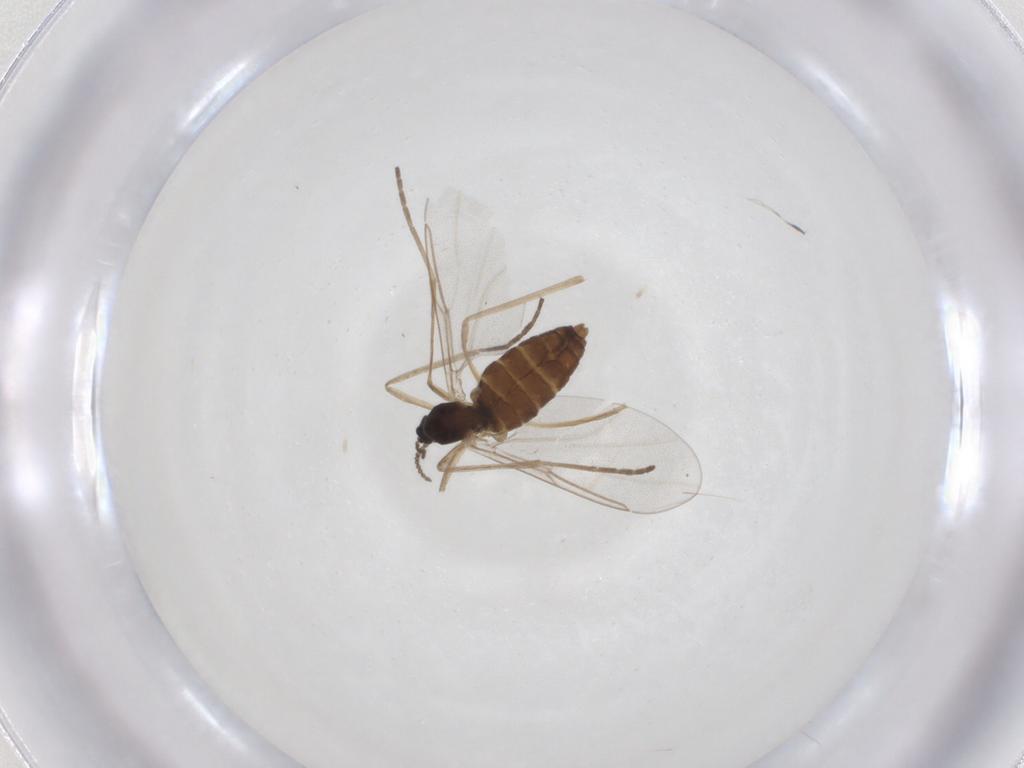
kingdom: Animalia
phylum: Arthropoda
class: Insecta
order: Diptera
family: Cecidomyiidae
